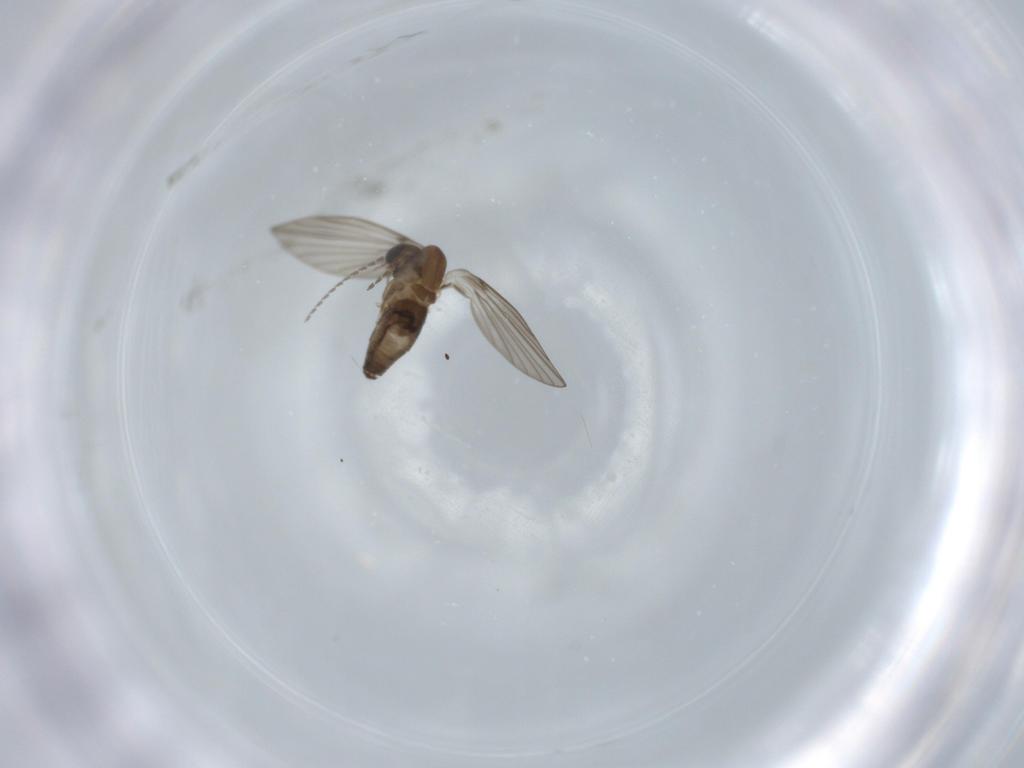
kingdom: Animalia
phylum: Arthropoda
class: Insecta
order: Diptera
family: Psychodidae
